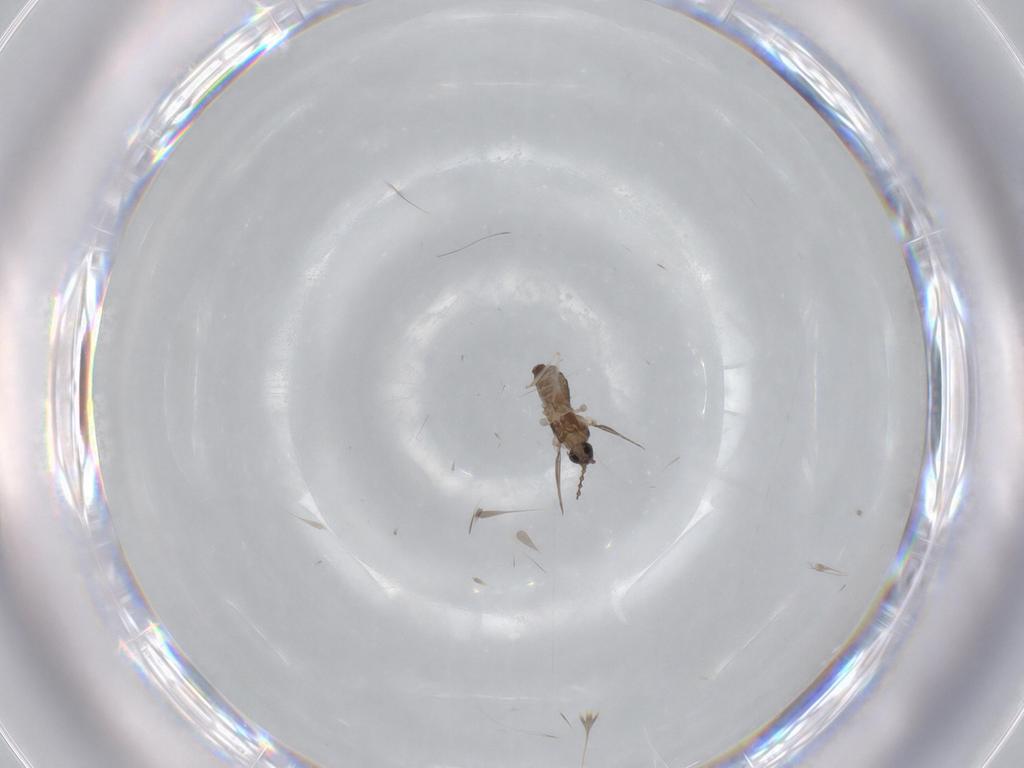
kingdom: Animalia
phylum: Arthropoda
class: Insecta
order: Diptera
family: Cecidomyiidae
